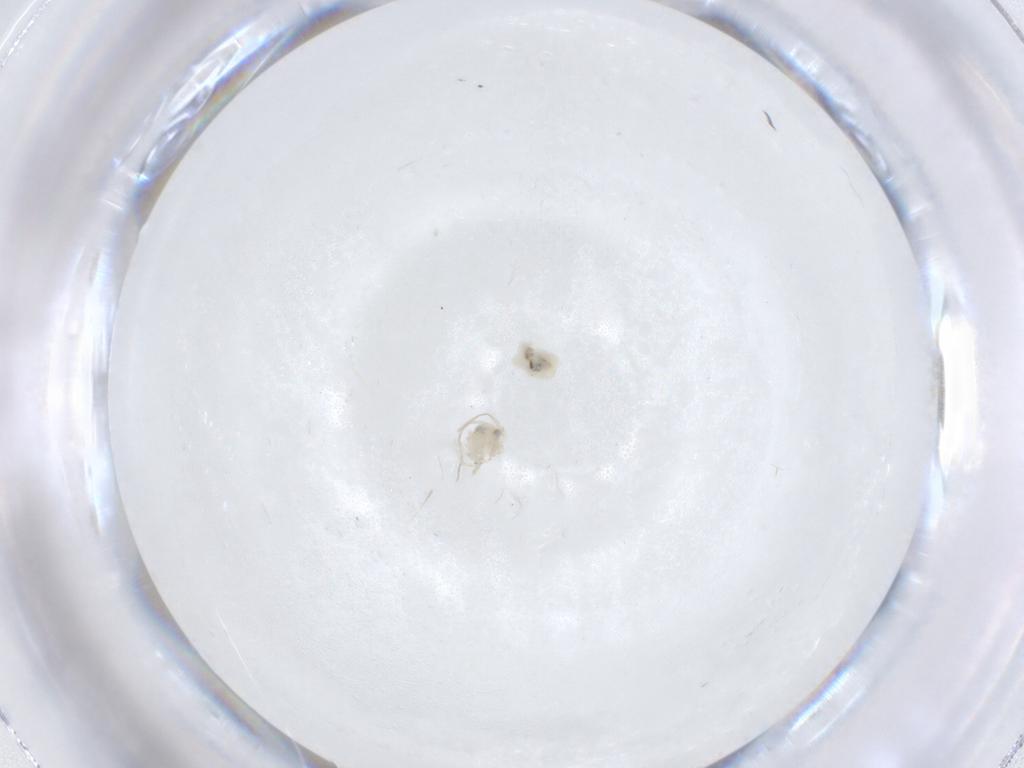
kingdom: Animalia
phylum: Arthropoda
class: Insecta
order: Psocodea
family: Caeciliusidae
